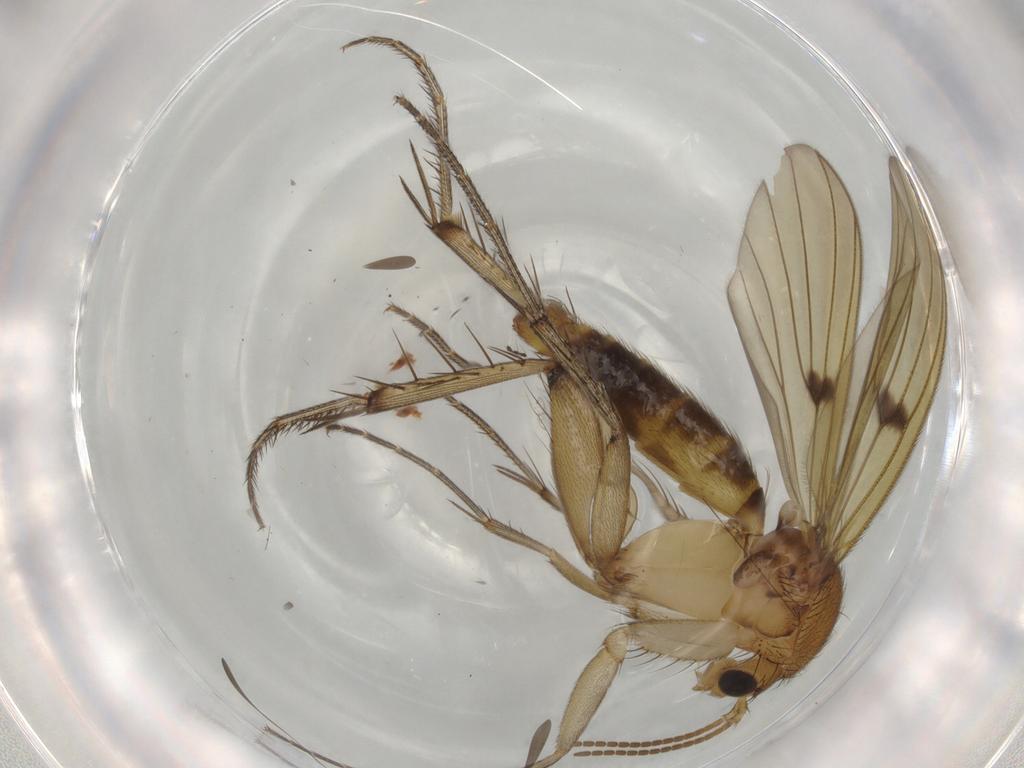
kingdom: Animalia
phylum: Arthropoda
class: Insecta
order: Diptera
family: Mycetophilidae
